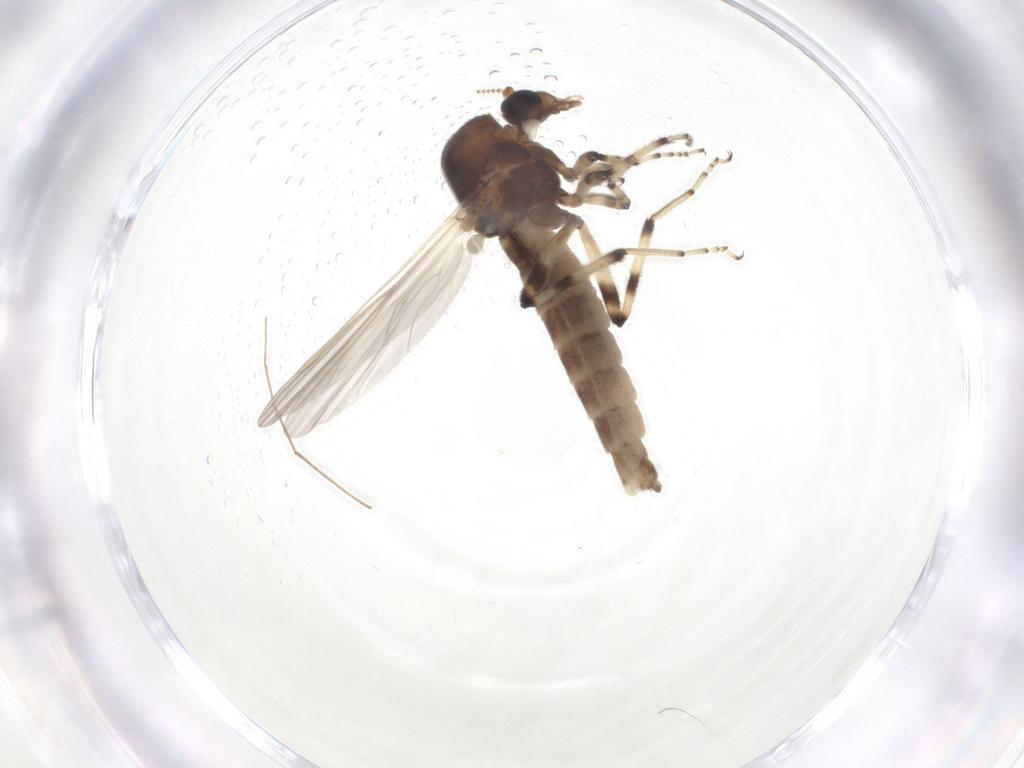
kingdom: Animalia
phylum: Arthropoda
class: Insecta
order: Diptera
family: Ceratopogonidae
